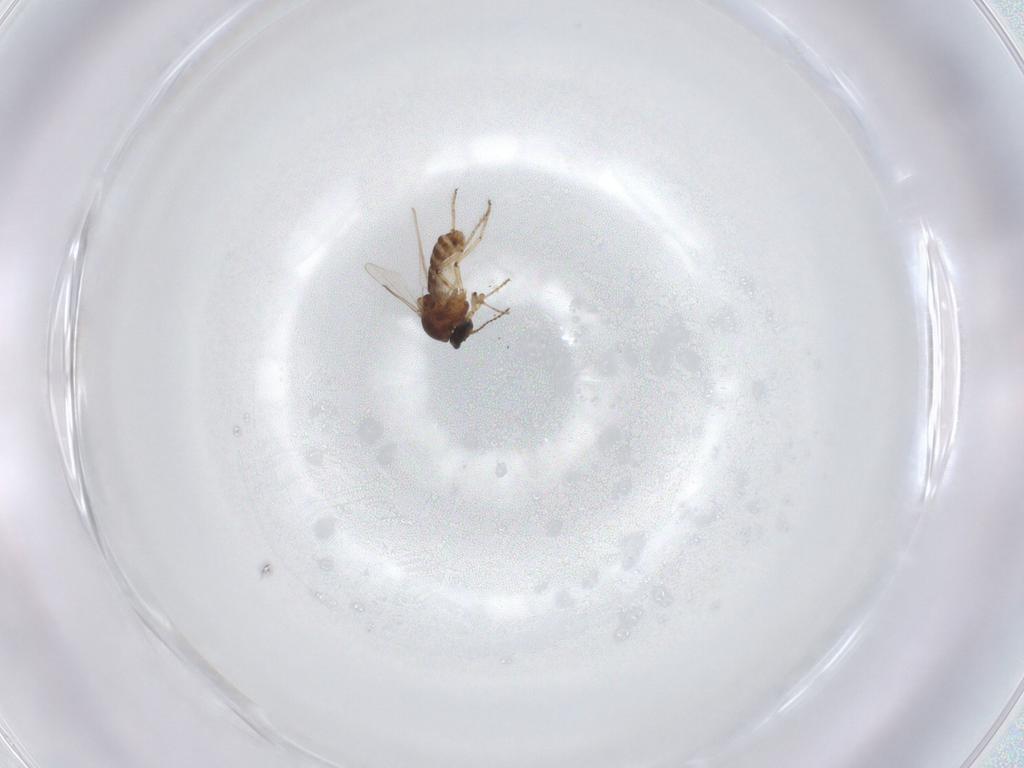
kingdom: Animalia
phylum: Arthropoda
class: Insecta
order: Diptera
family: Ceratopogonidae
